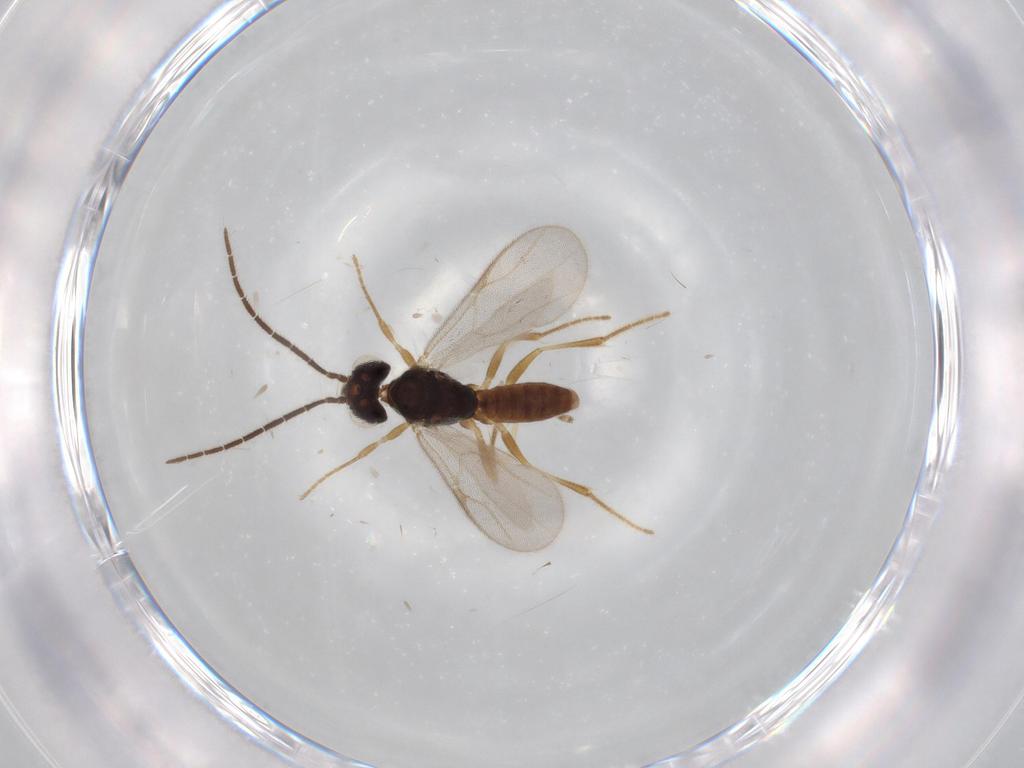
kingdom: Animalia
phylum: Arthropoda
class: Insecta
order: Hymenoptera
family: Dryinidae
